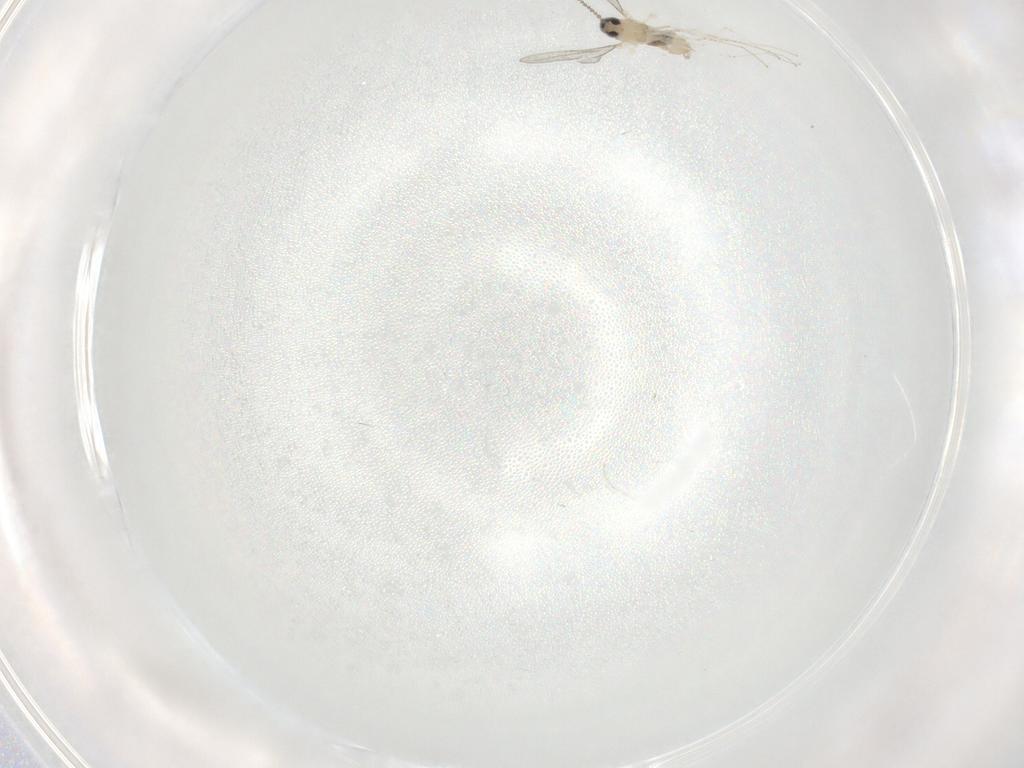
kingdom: Animalia
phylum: Arthropoda
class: Insecta
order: Diptera
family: Cecidomyiidae
